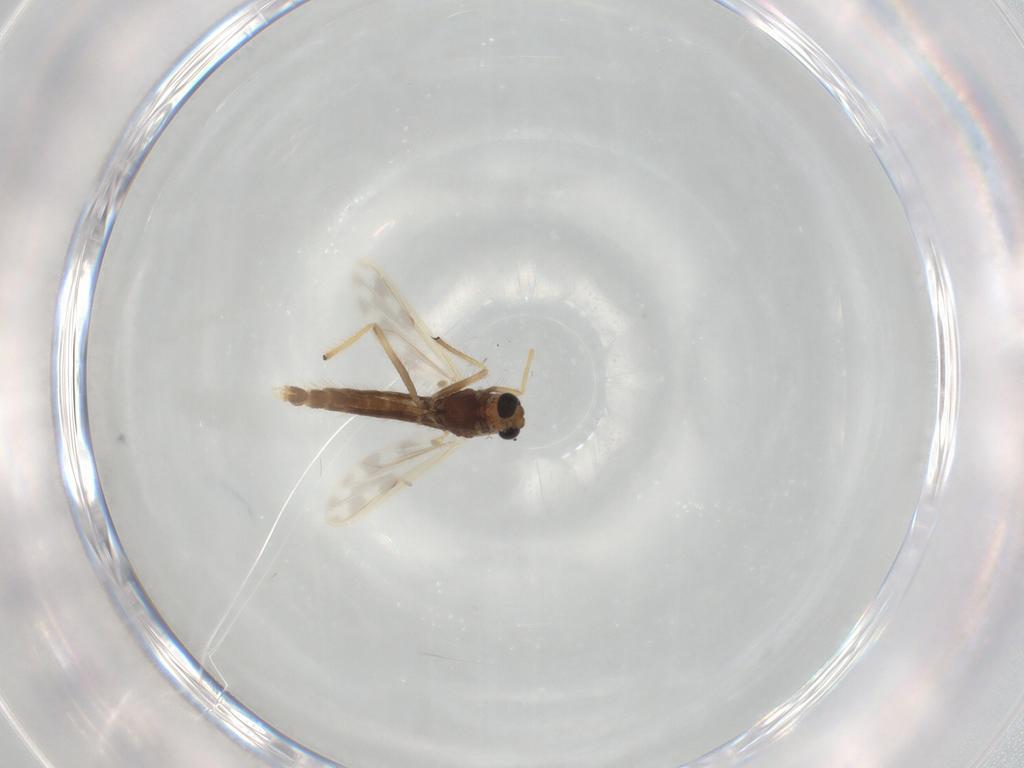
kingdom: Animalia
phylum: Arthropoda
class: Insecta
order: Diptera
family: Chironomidae
